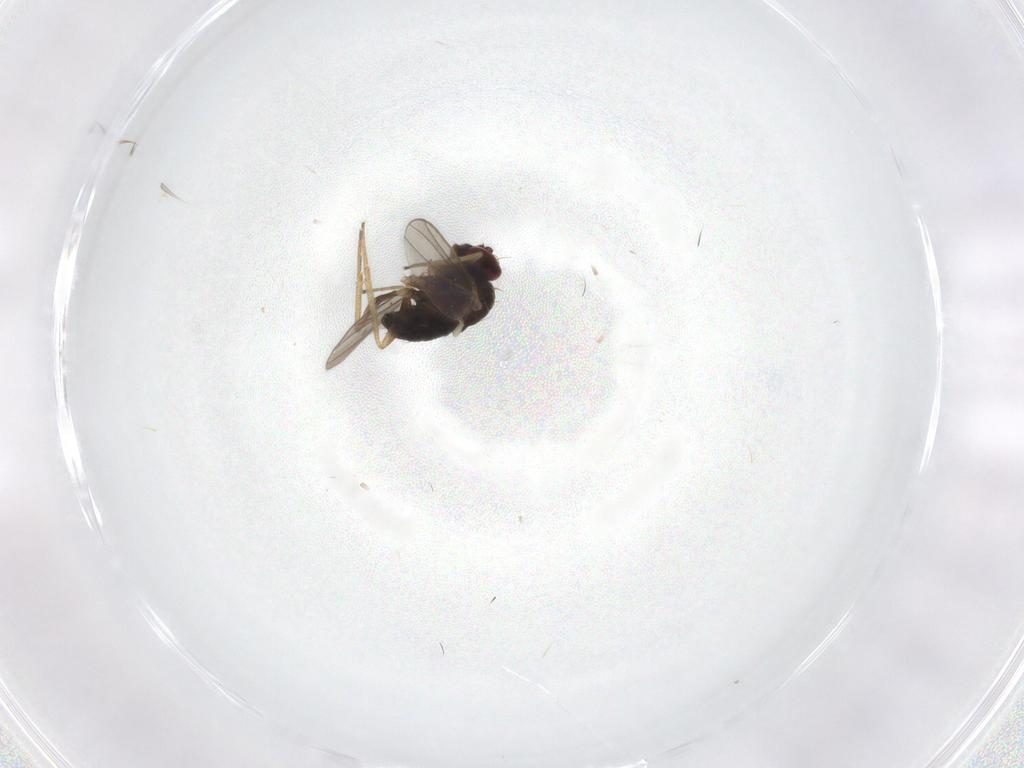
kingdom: Animalia
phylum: Arthropoda
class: Insecta
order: Diptera
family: Dolichopodidae
